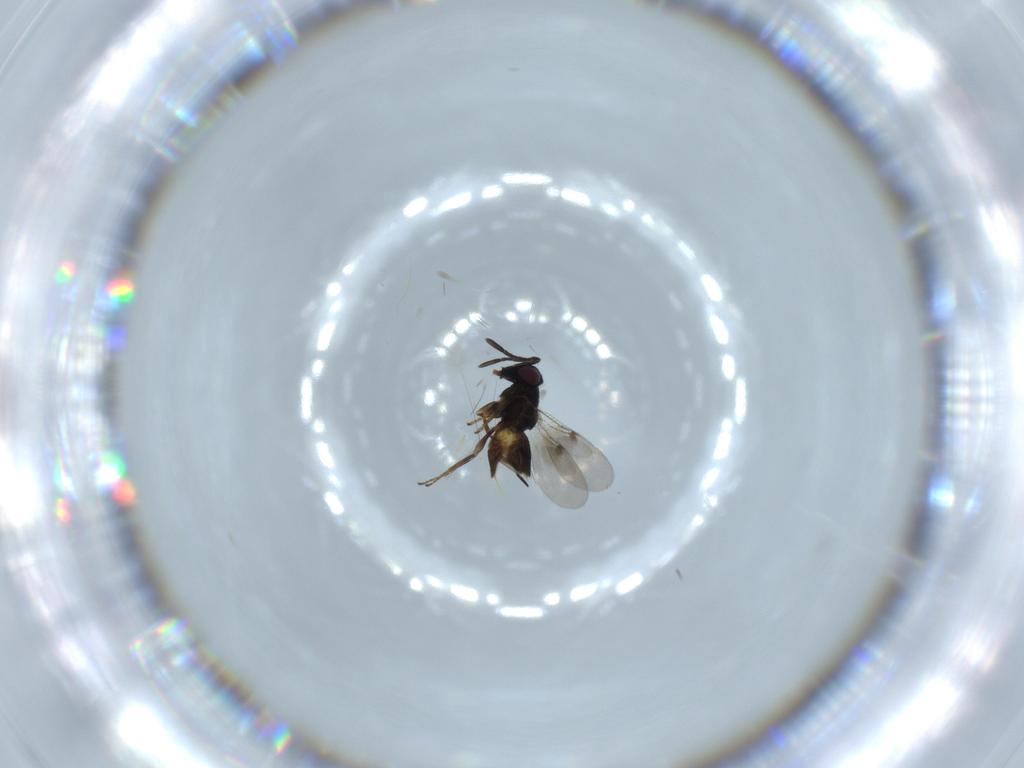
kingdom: Animalia
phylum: Arthropoda
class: Insecta
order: Hymenoptera
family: Encyrtidae
